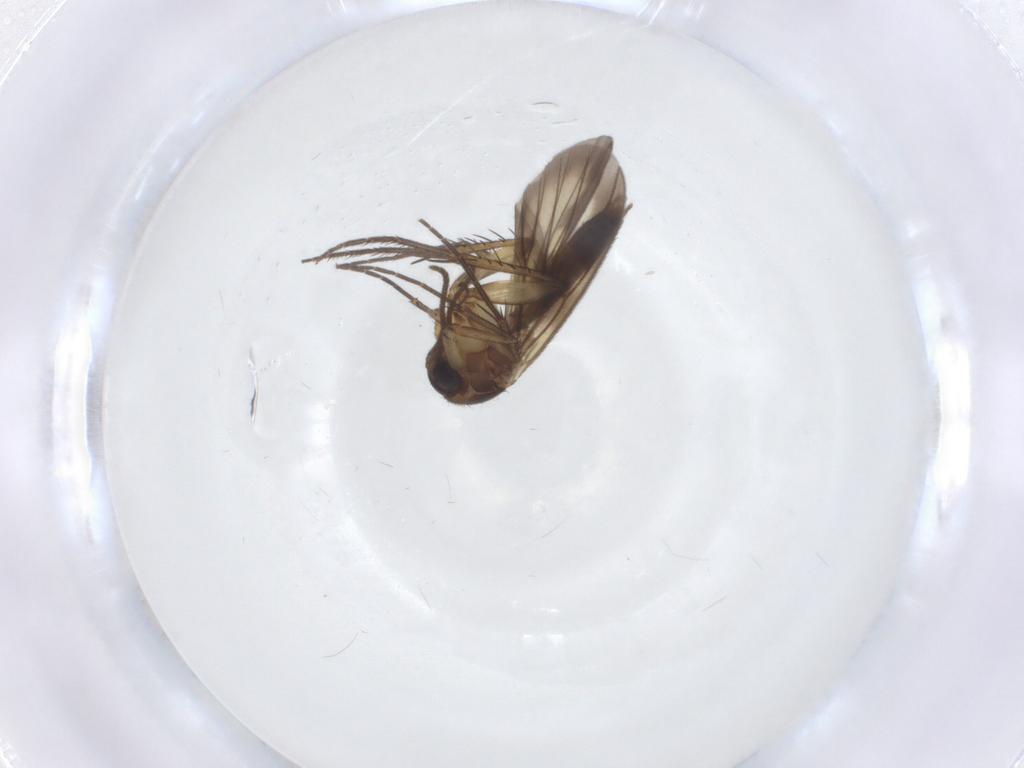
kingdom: Animalia
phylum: Arthropoda
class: Insecta
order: Diptera
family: Mycetophilidae
